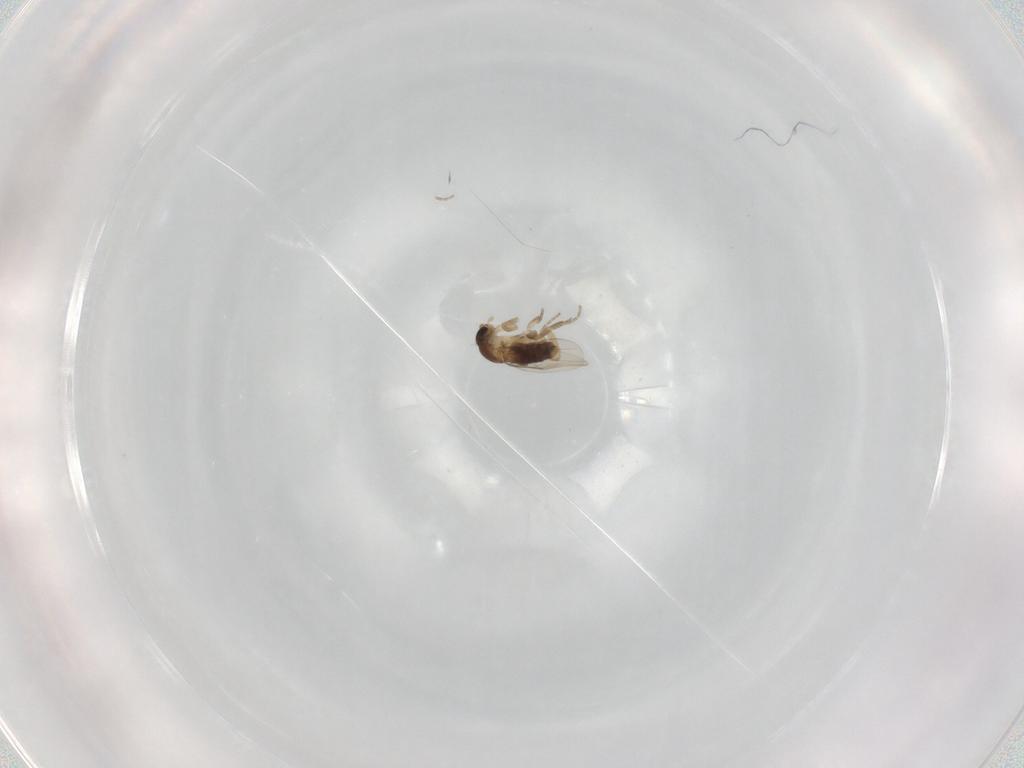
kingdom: Animalia
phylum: Arthropoda
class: Insecta
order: Diptera
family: Phoridae
